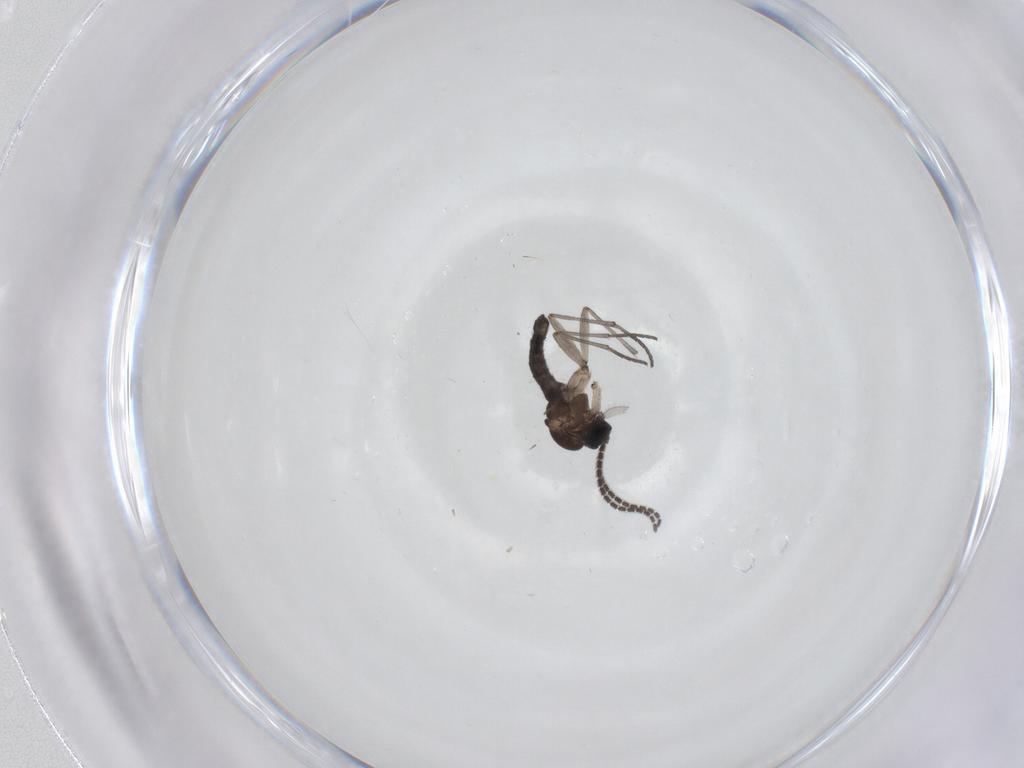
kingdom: Animalia
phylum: Arthropoda
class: Insecta
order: Diptera
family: Sciaridae
